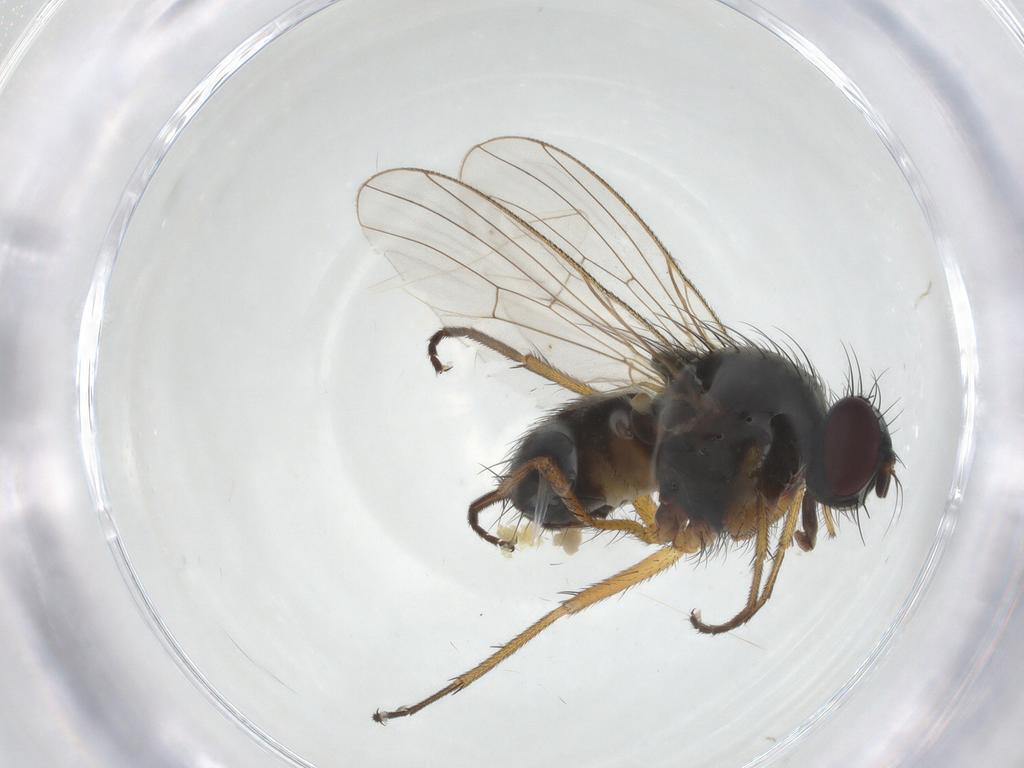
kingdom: Animalia
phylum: Arthropoda
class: Insecta
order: Diptera
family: Muscidae
